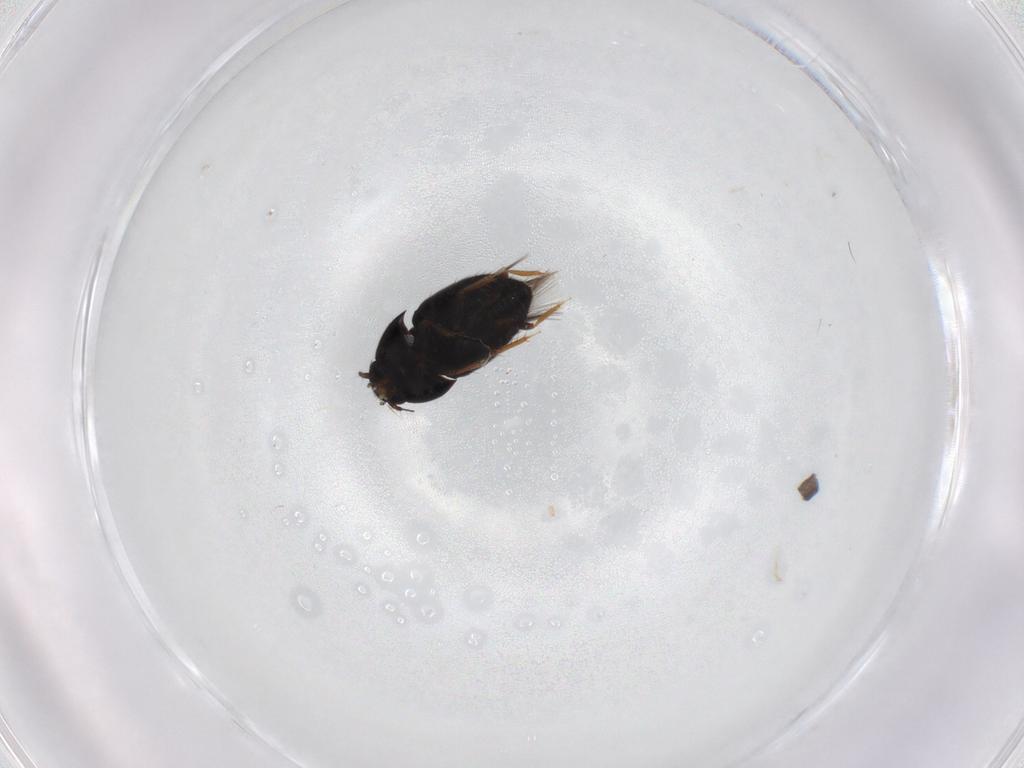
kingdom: Animalia
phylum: Arthropoda
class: Insecta
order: Coleoptera
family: Ptiliidae
